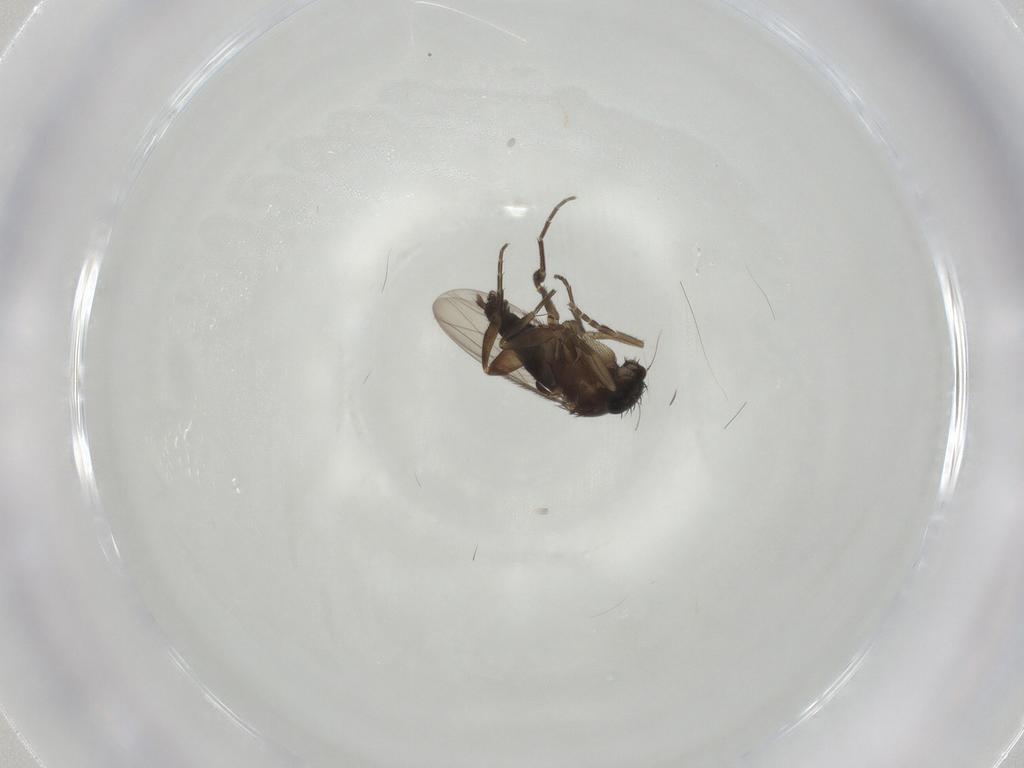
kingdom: Animalia
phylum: Arthropoda
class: Insecta
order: Diptera
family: Phoridae
